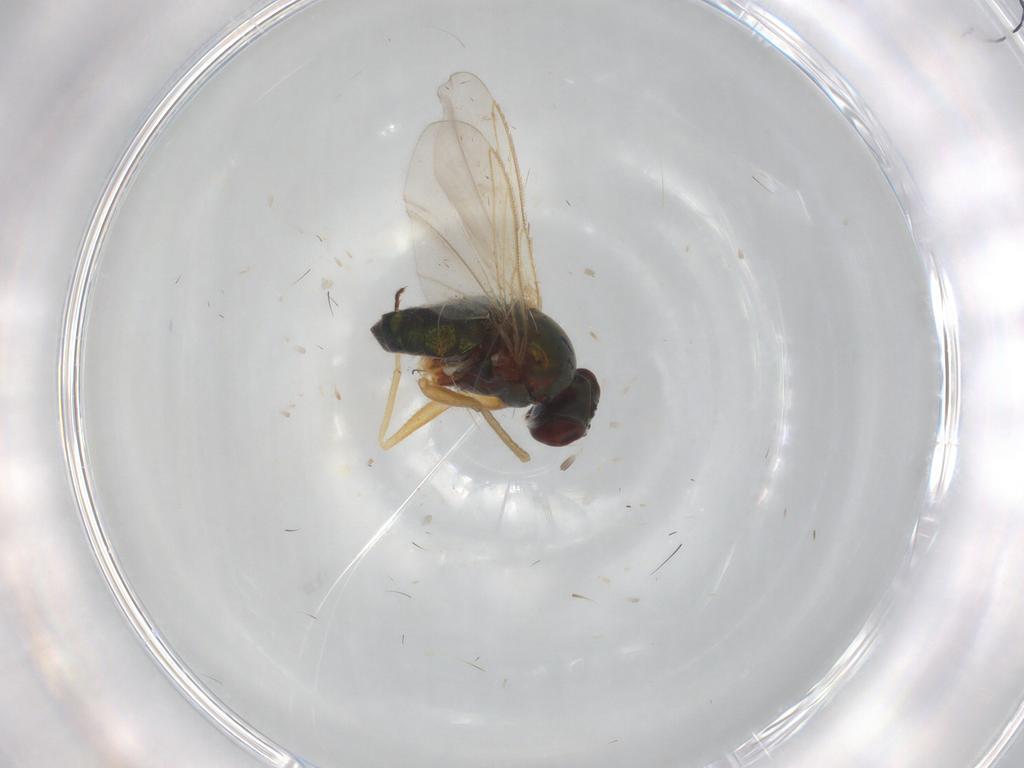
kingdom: Animalia
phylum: Arthropoda
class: Insecta
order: Diptera
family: Dolichopodidae
